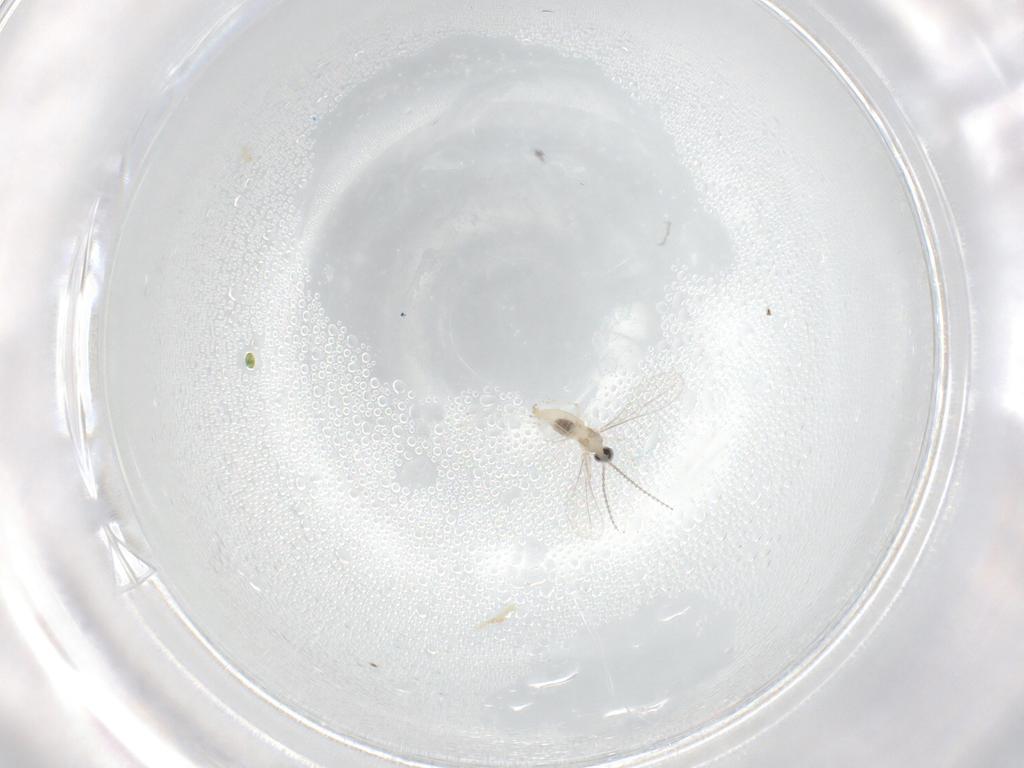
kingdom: Animalia
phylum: Arthropoda
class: Insecta
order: Diptera
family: Cecidomyiidae
